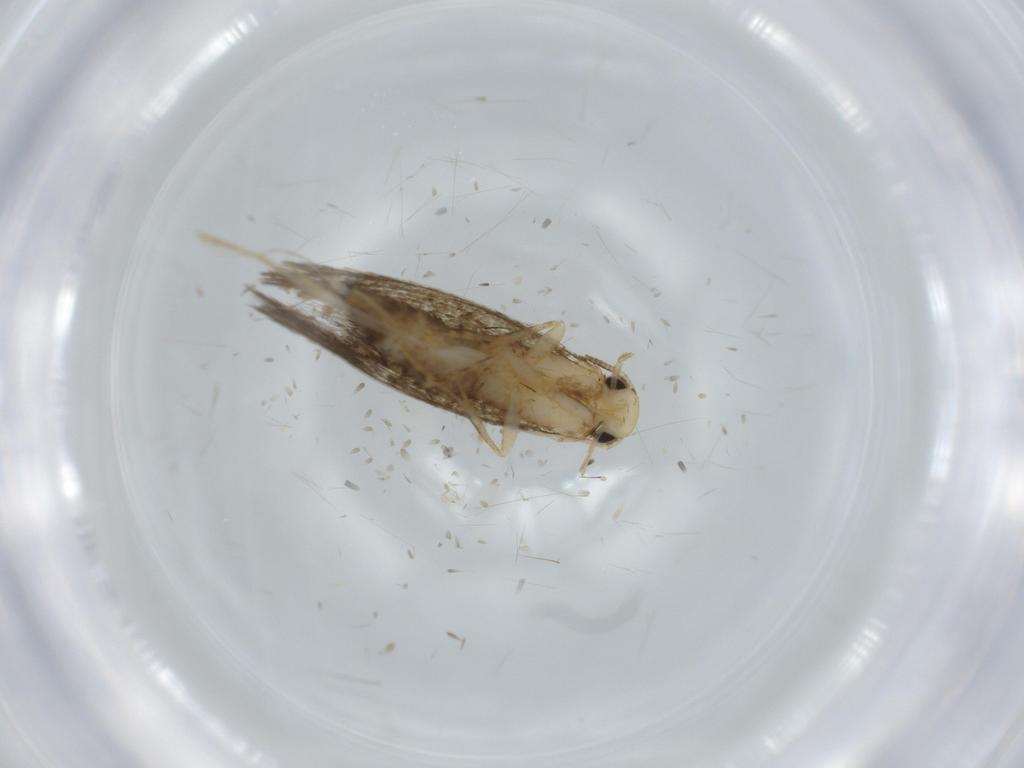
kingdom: Animalia
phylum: Arthropoda
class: Insecta
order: Lepidoptera
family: Tineidae
